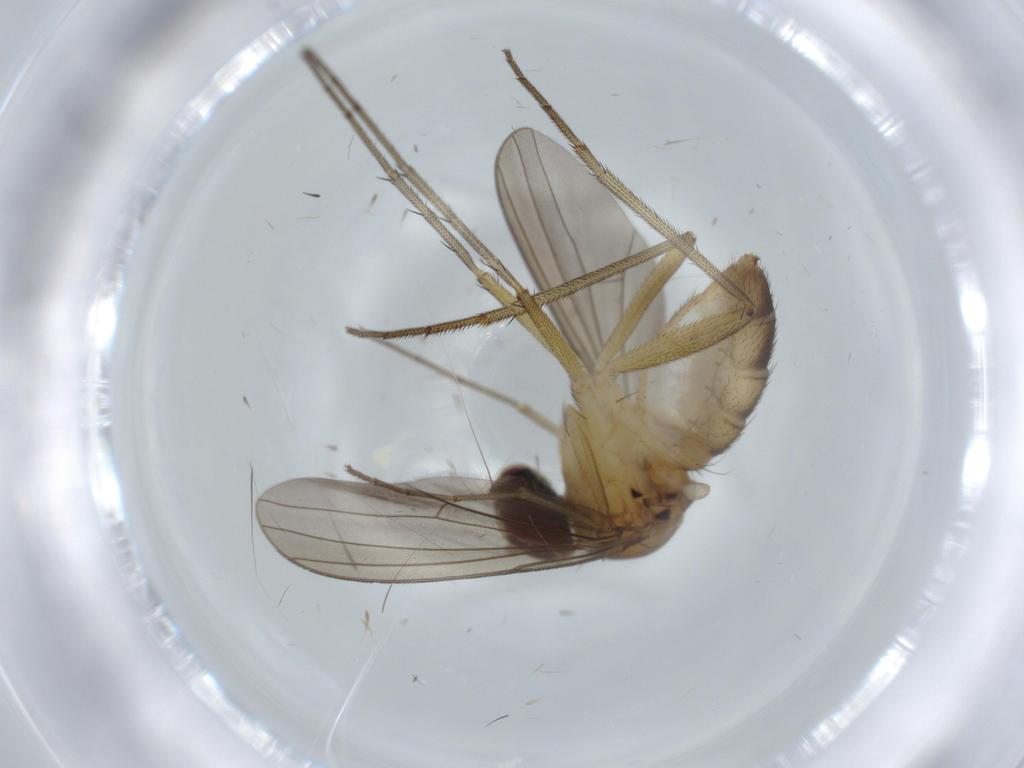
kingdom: Animalia
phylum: Arthropoda
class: Insecta
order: Diptera
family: Dolichopodidae
